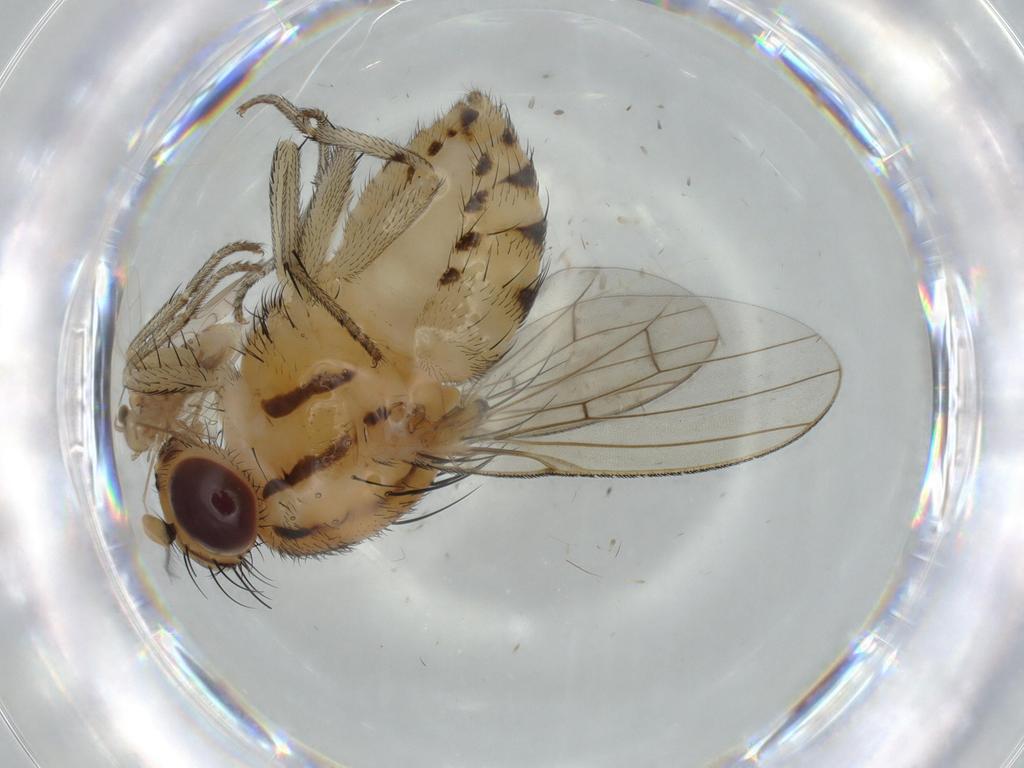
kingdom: Animalia
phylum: Arthropoda
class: Insecta
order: Diptera
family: Lauxaniidae
